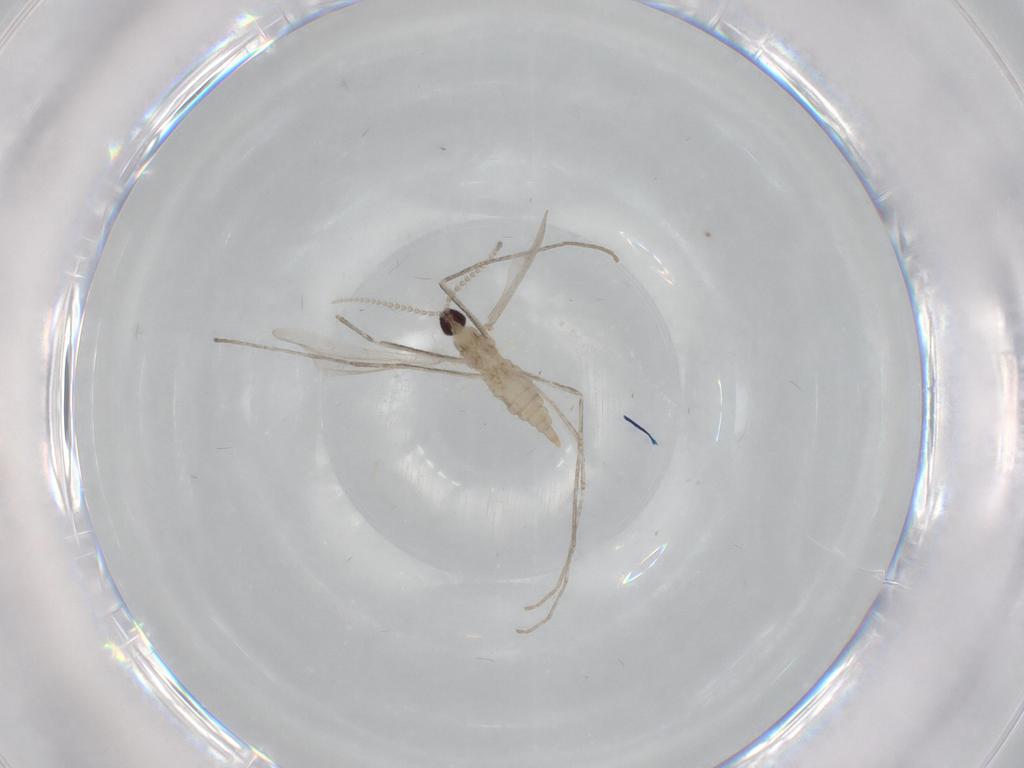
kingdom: Animalia
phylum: Arthropoda
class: Insecta
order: Diptera
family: Cecidomyiidae
